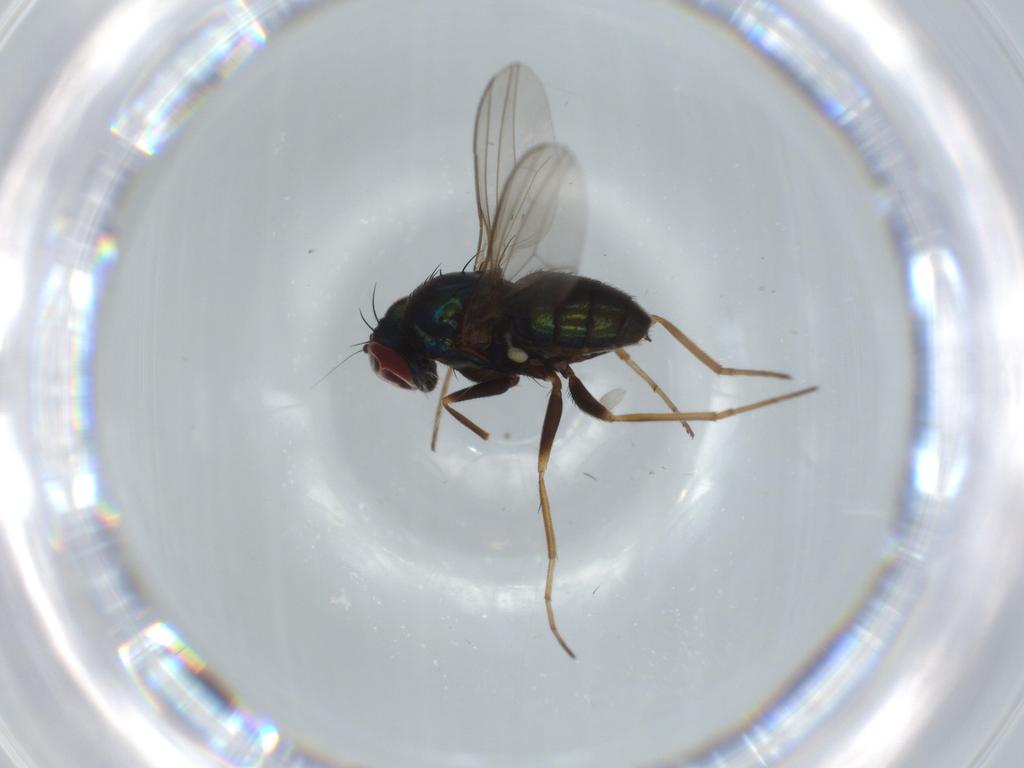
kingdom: Animalia
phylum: Arthropoda
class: Insecta
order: Diptera
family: Dolichopodidae
